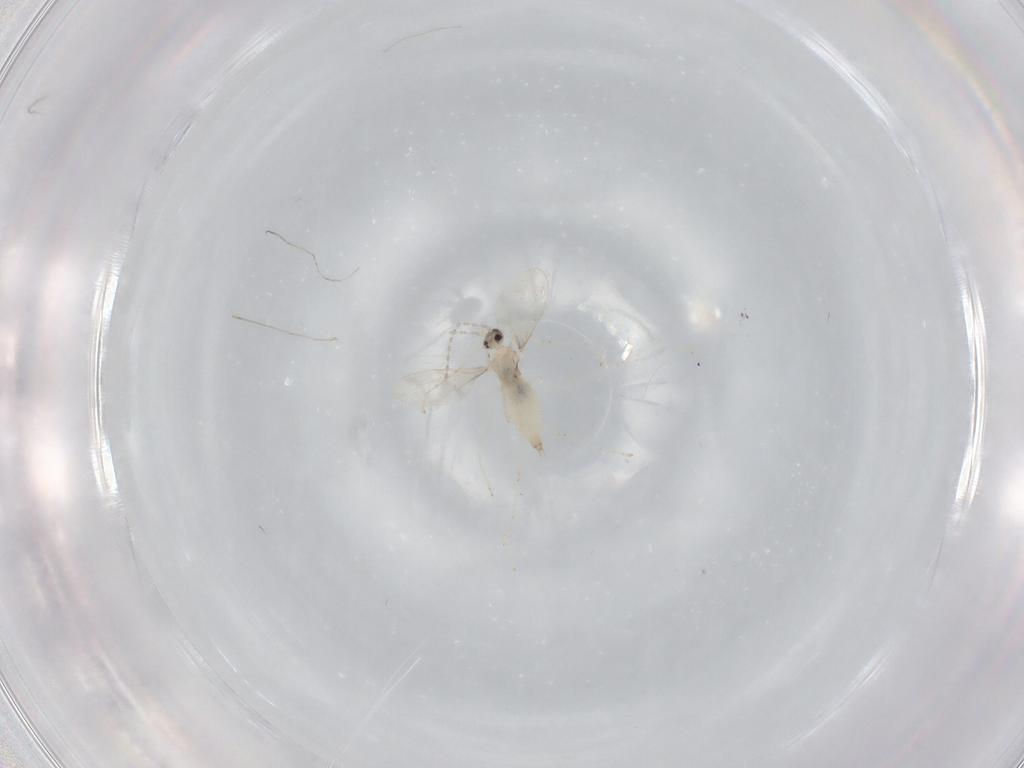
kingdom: Animalia
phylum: Arthropoda
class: Insecta
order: Diptera
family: Cecidomyiidae
